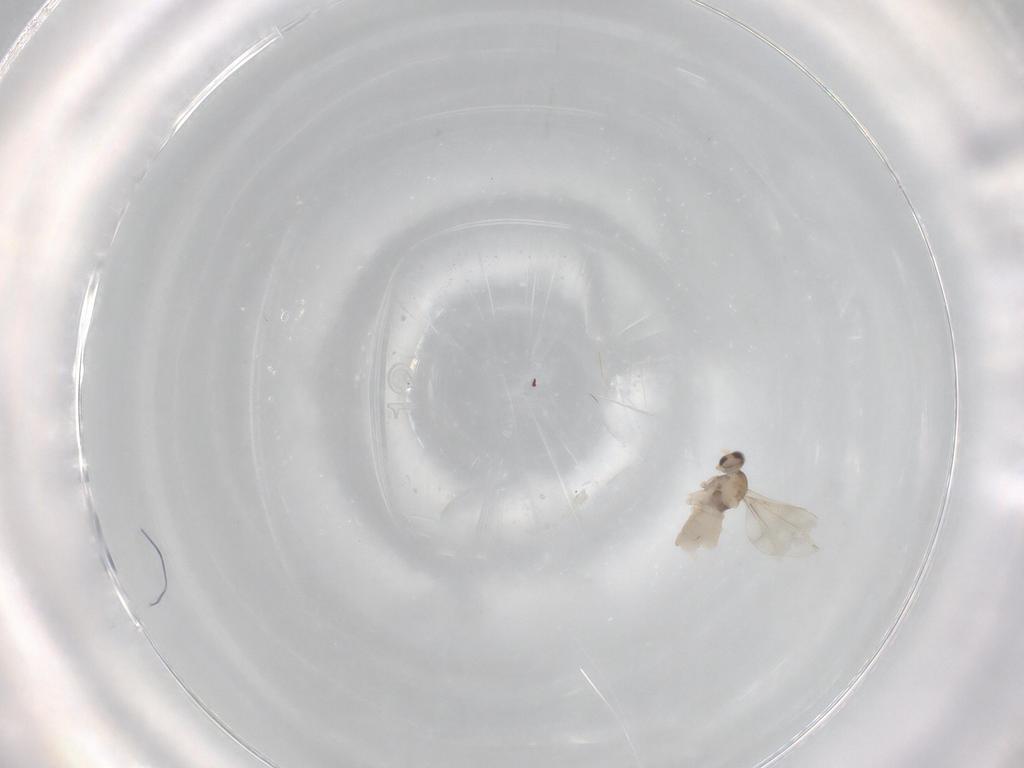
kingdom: Animalia
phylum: Arthropoda
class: Insecta
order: Diptera
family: Cecidomyiidae
